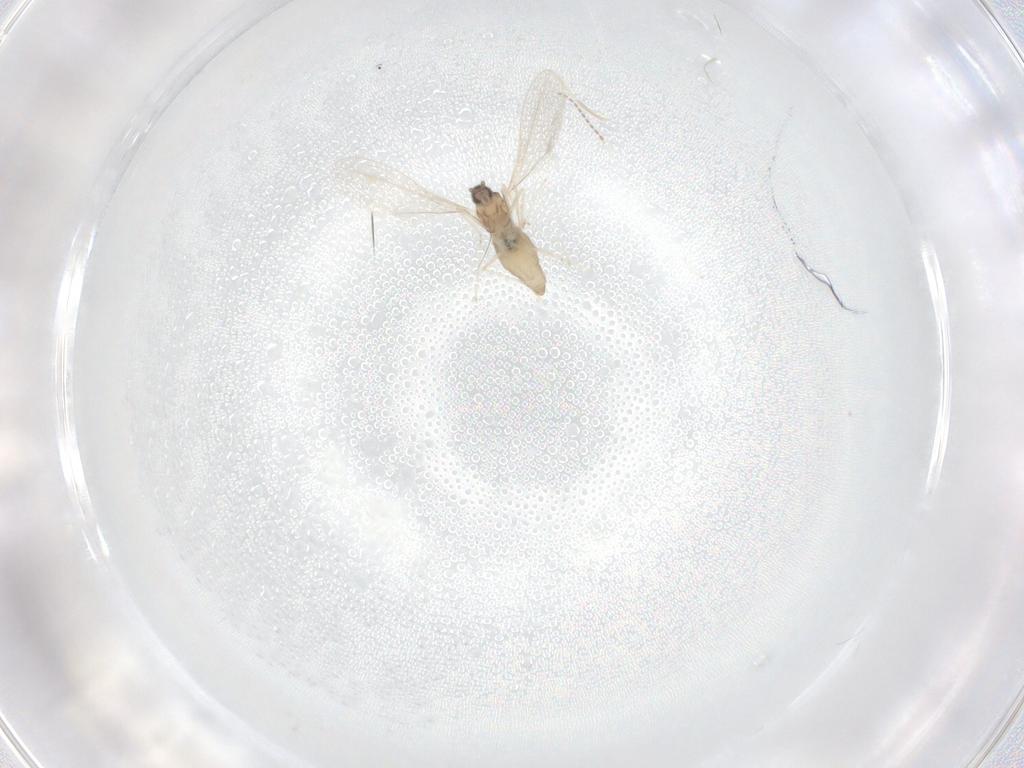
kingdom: Animalia
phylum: Arthropoda
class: Insecta
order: Diptera
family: Cecidomyiidae
